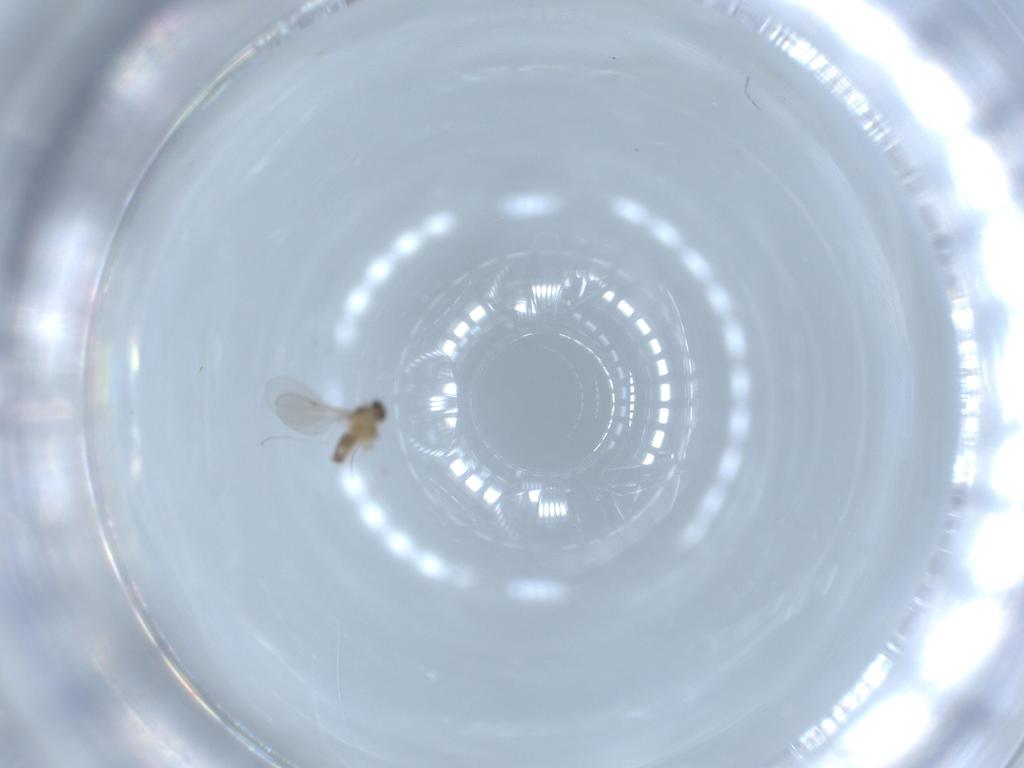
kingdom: Animalia
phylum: Arthropoda
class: Insecta
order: Diptera
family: Cecidomyiidae
